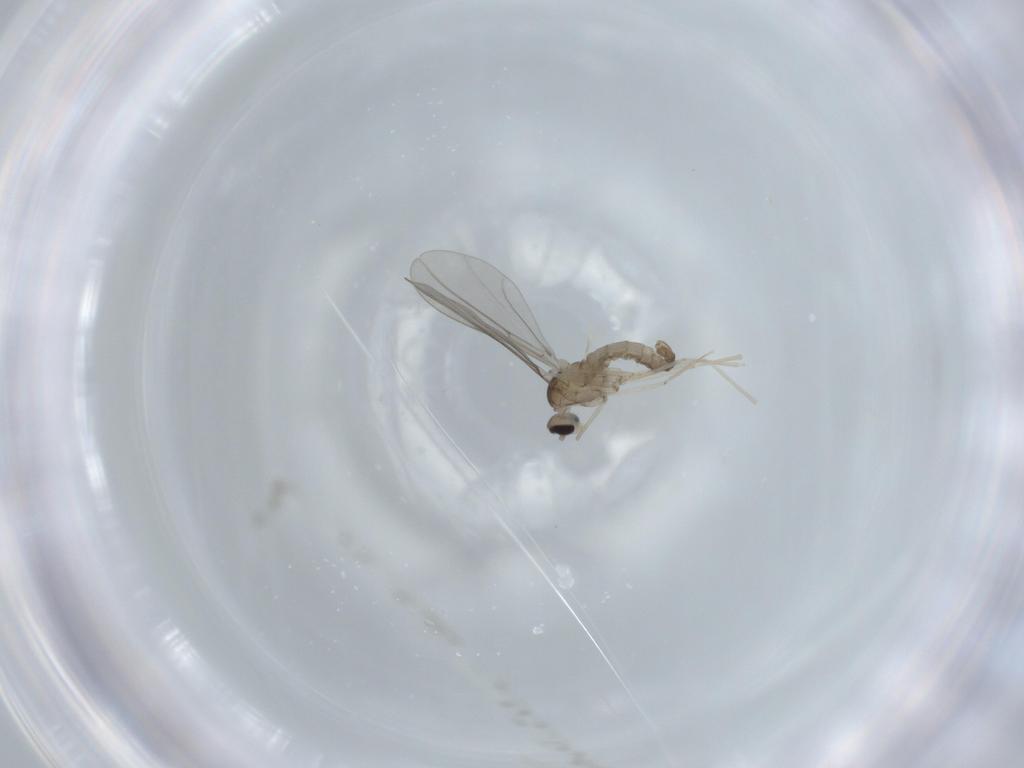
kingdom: Animalia
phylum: Arthropoda
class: Insecta
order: Diptera
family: Cecidomyiidae
